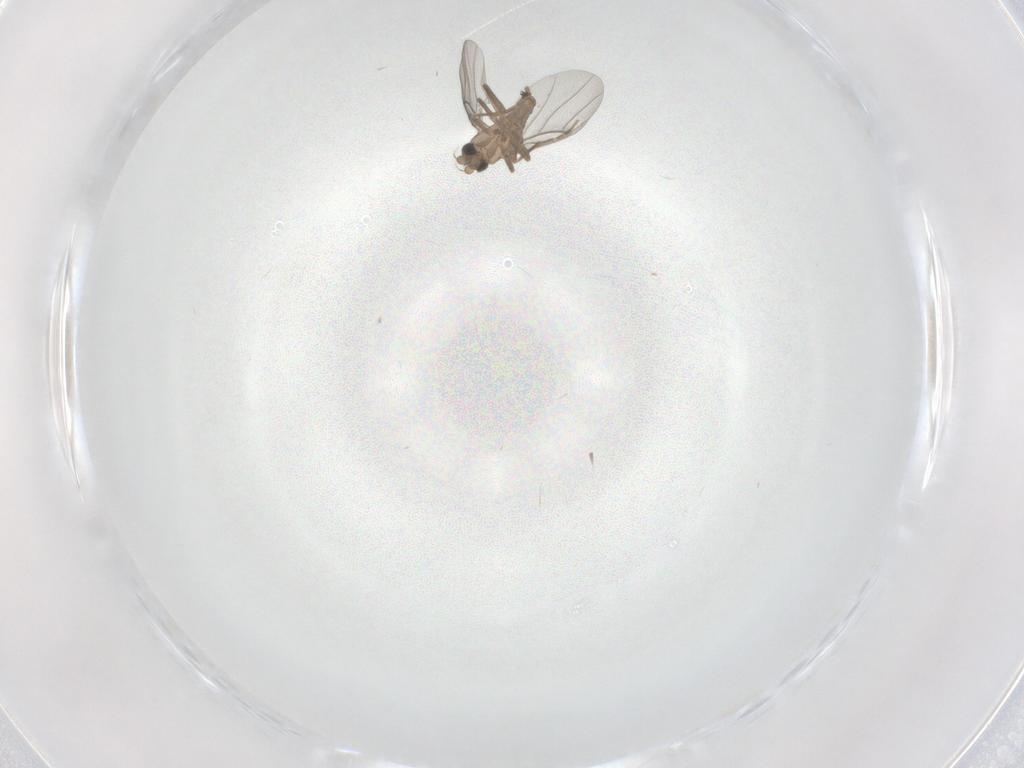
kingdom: Animalia
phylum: Arthropoda
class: Insecta
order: Diptera
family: Phoridae
